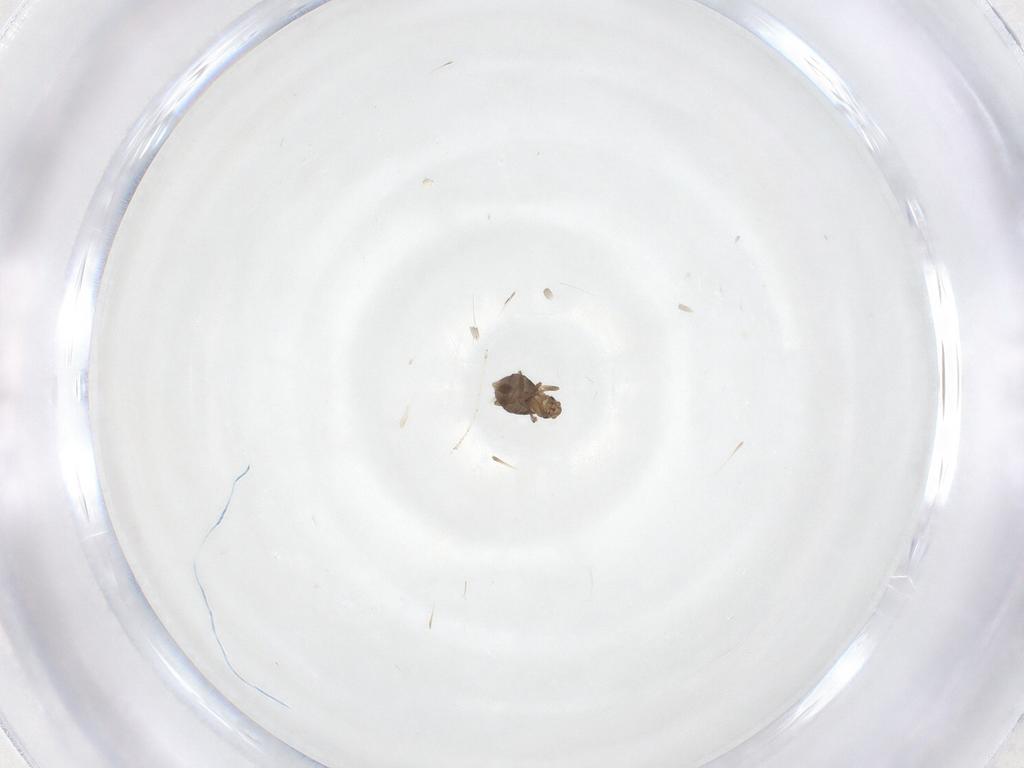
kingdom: Animalia
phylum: Arthropoda
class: Insecta
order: Diptera
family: Phoridae
